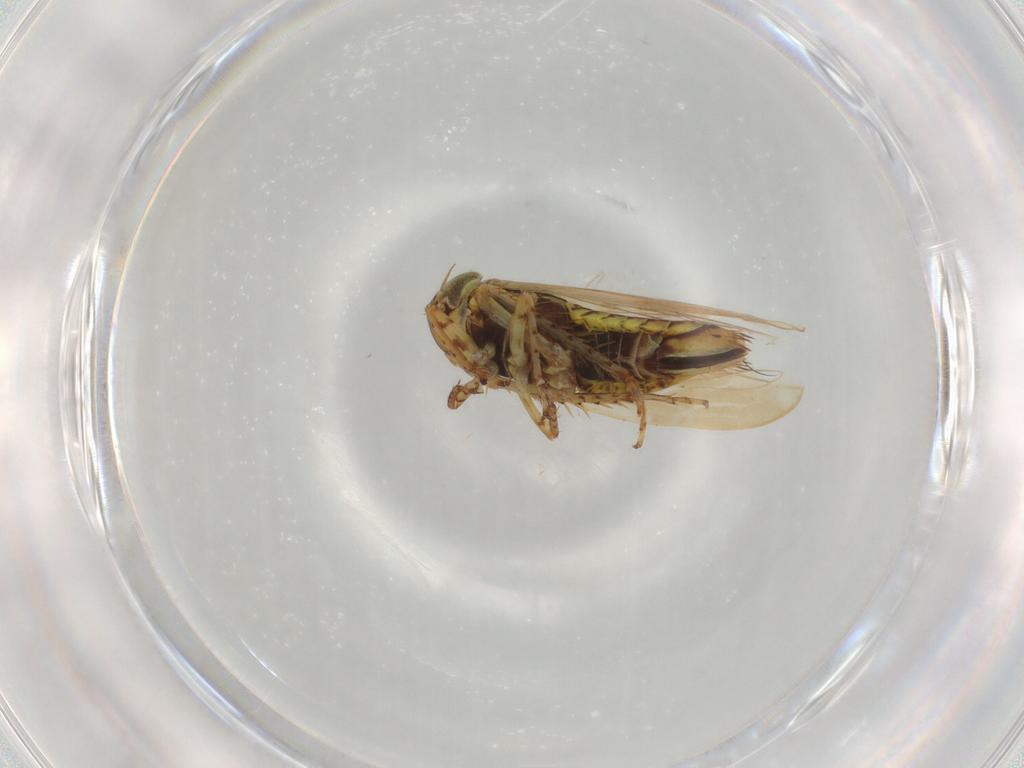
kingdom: Animalia
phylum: Arthropoda
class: Insecta
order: Hemiptera
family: Cicadellidae
